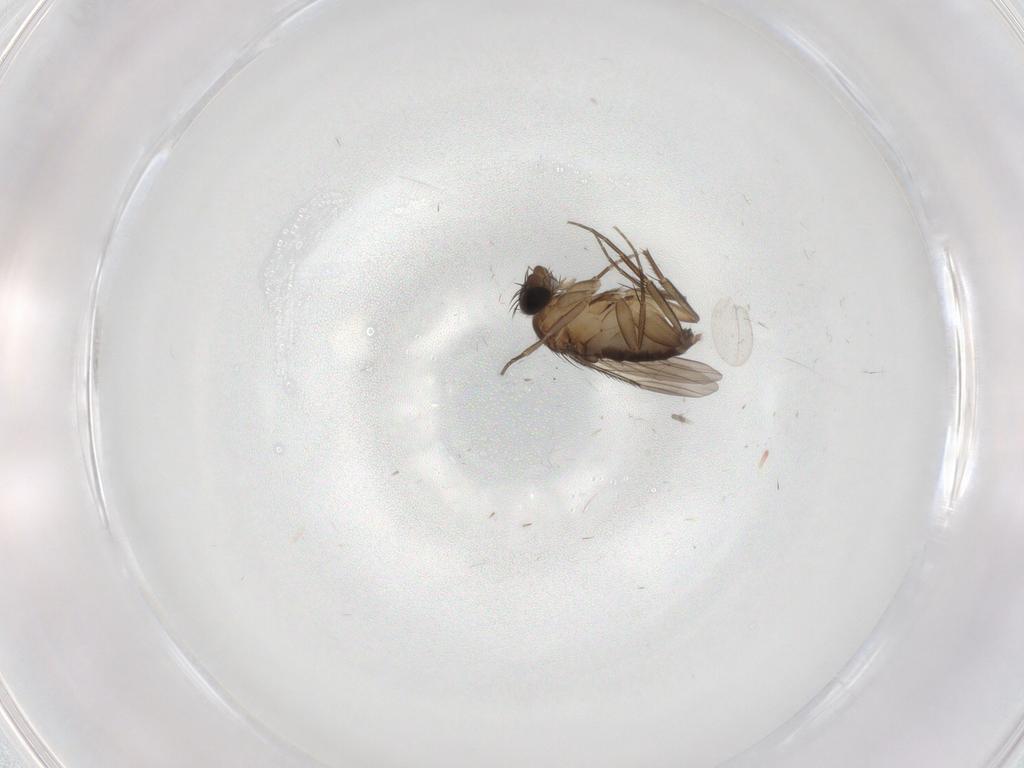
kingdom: Animalia
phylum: Arthropoda
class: Insecta
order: Diptera
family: Phoridae
